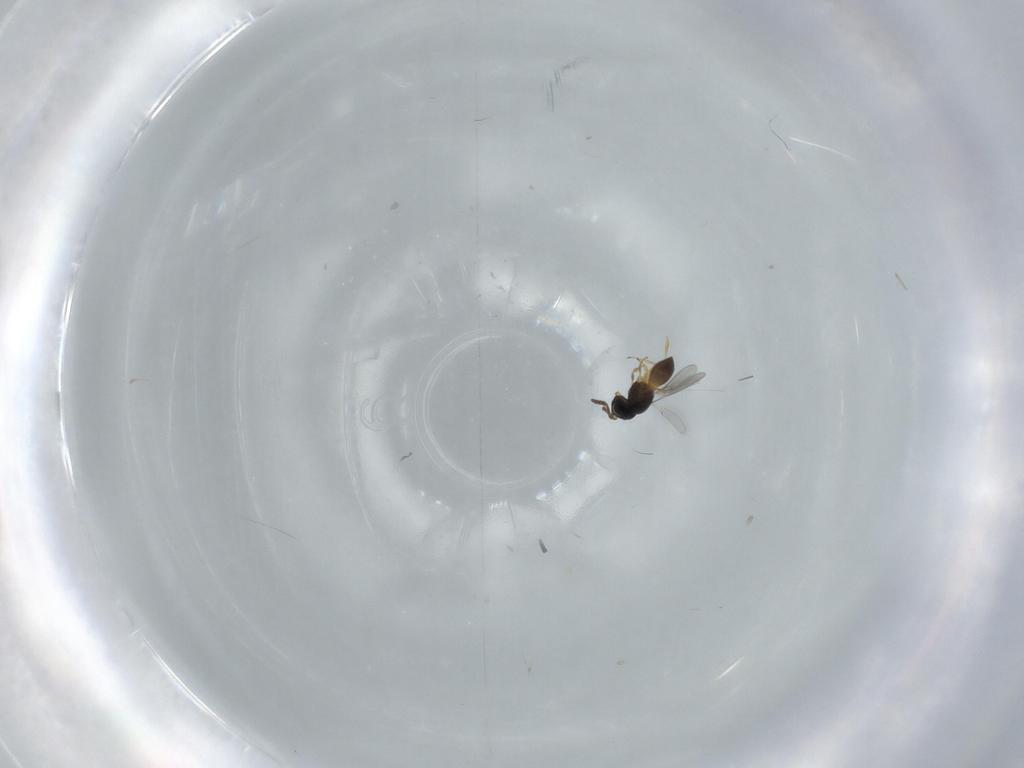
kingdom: Animalia
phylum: Arthropoda
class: Insecta
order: Hymenoptera
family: Scelionidae
